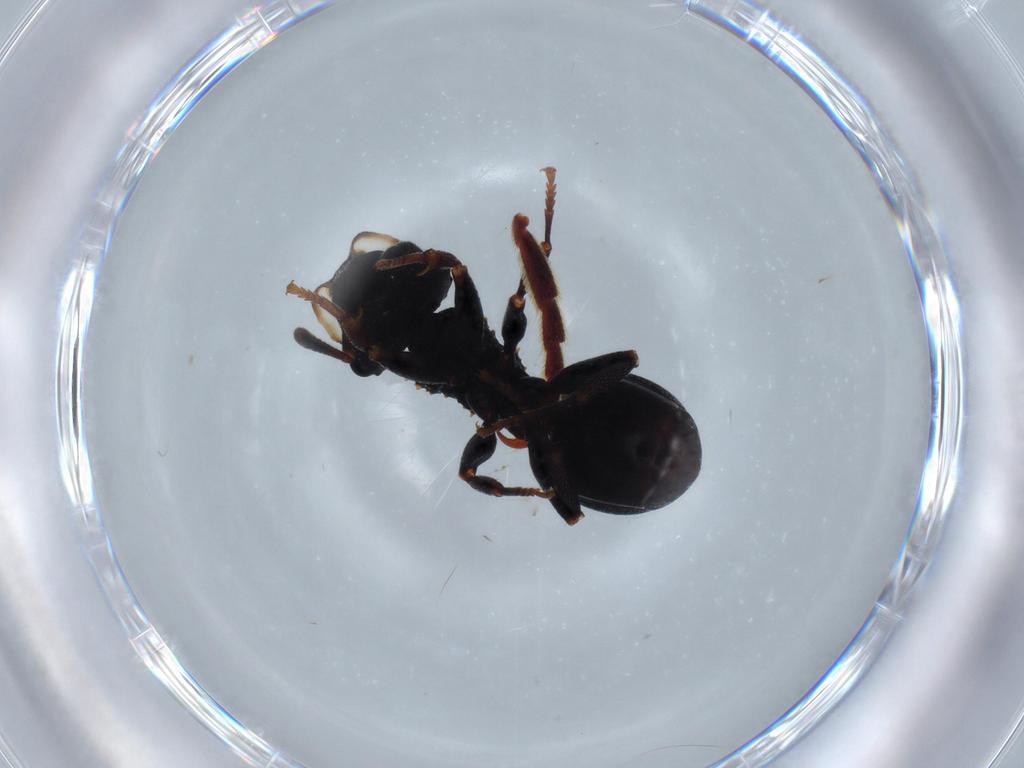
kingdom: Animalia
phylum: Arthropoda
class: Insecta
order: Hymenoptera
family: Formicidae
